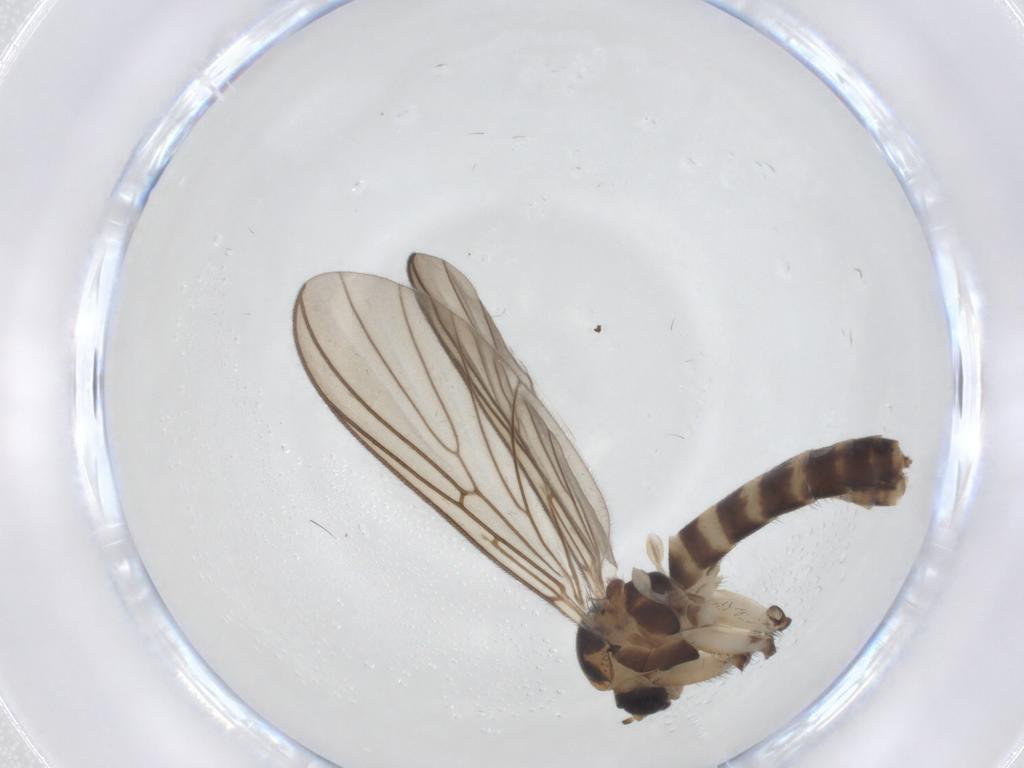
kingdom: Animalia
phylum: Arthropoda
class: Insecta
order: Diptera
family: Mycetophilidae
